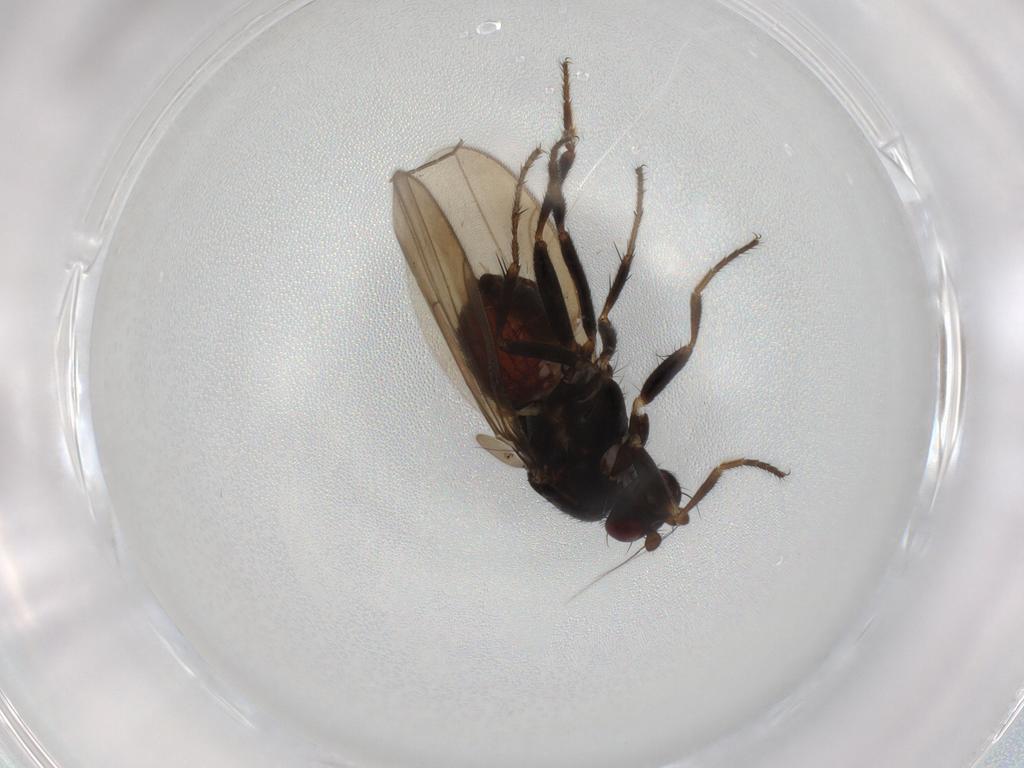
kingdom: Animalia
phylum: Arthropoda
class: Insecta
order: Diptera
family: Sphaeroceridae
